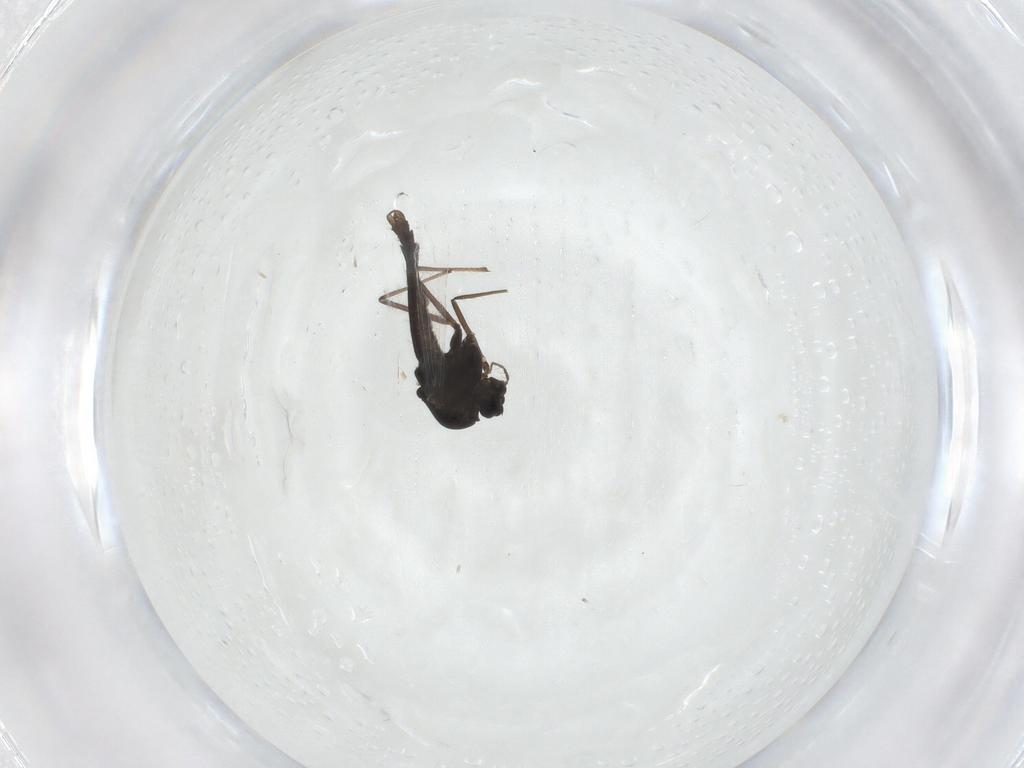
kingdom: Animalia
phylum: Arthropoda
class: Insecta
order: Diptera
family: Chironomidae
